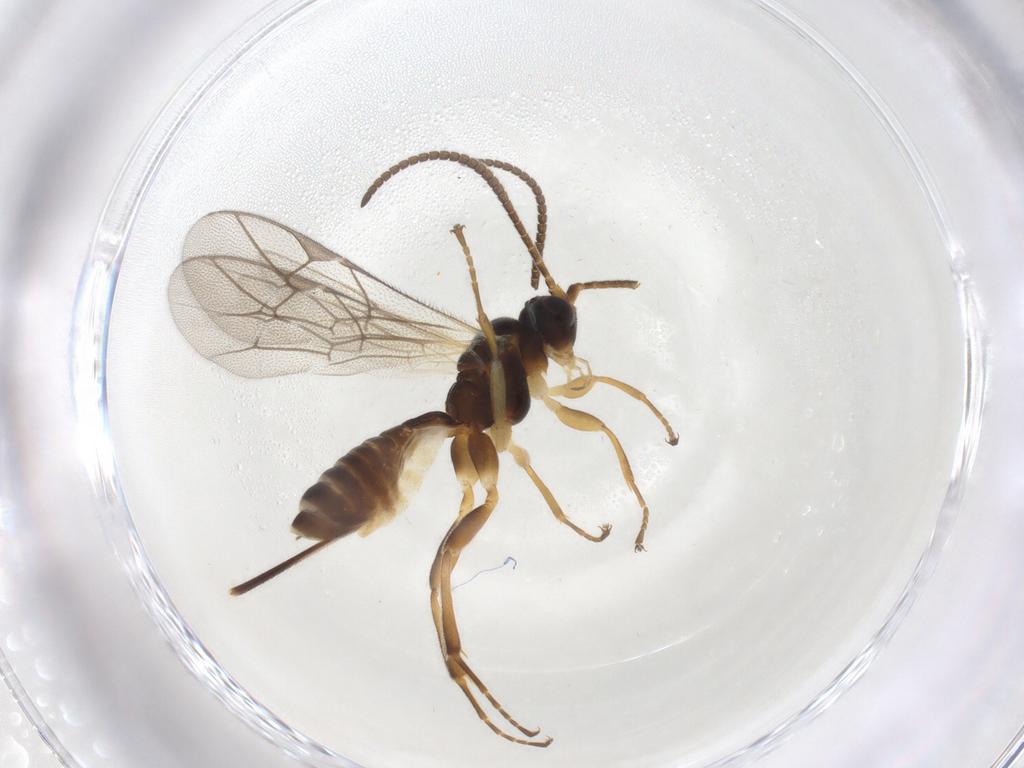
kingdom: Animalia
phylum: Arthropoda
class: Insecta
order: Hymenoptera
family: Ichneumonidae
